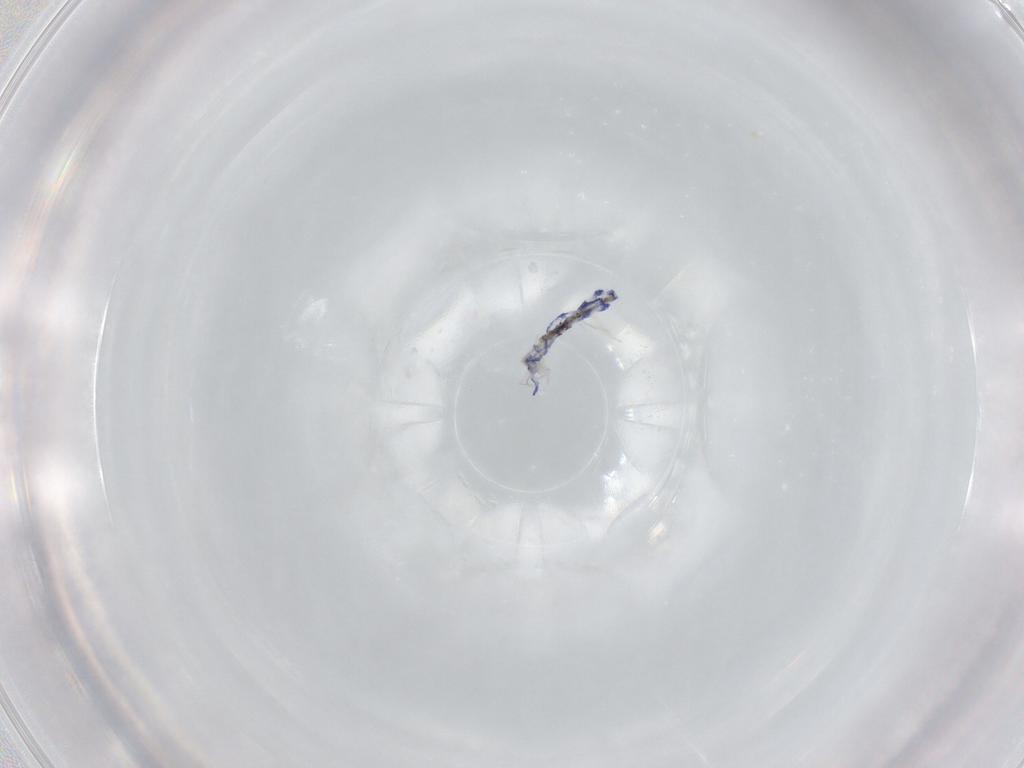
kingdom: Animalia
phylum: Arthropoda
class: Collembola
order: Entomobryomorpha
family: Entomobryidae
